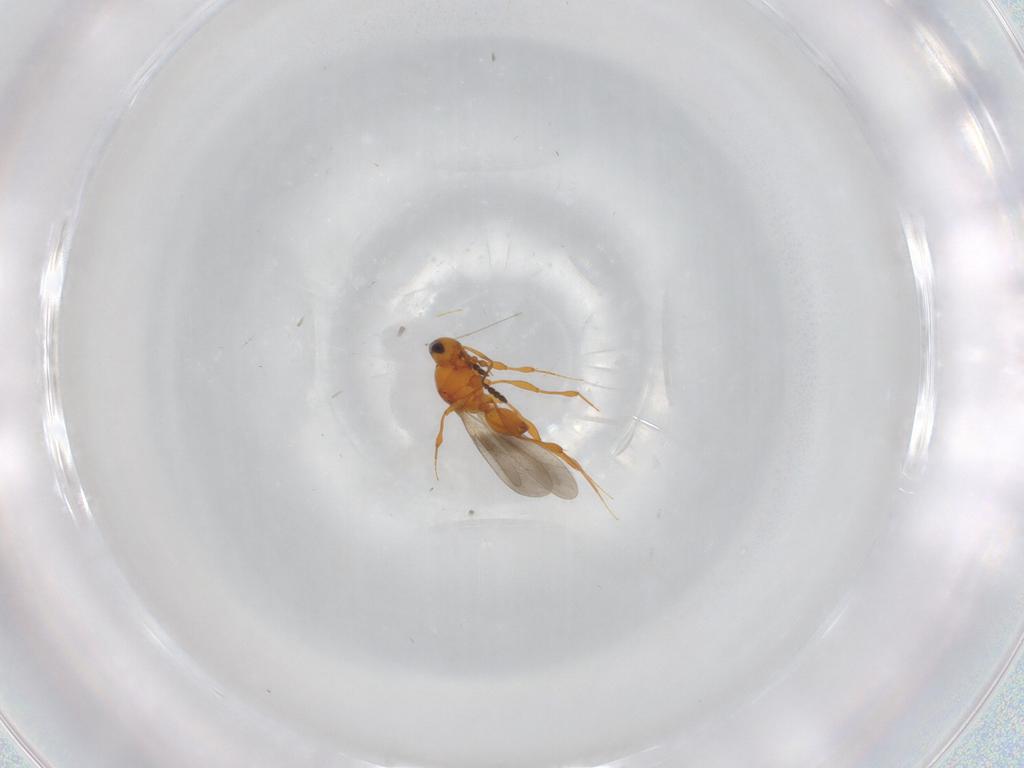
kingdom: Animalia
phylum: Arthropoda
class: Insecta
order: Hymenoptera
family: Platygastridae
